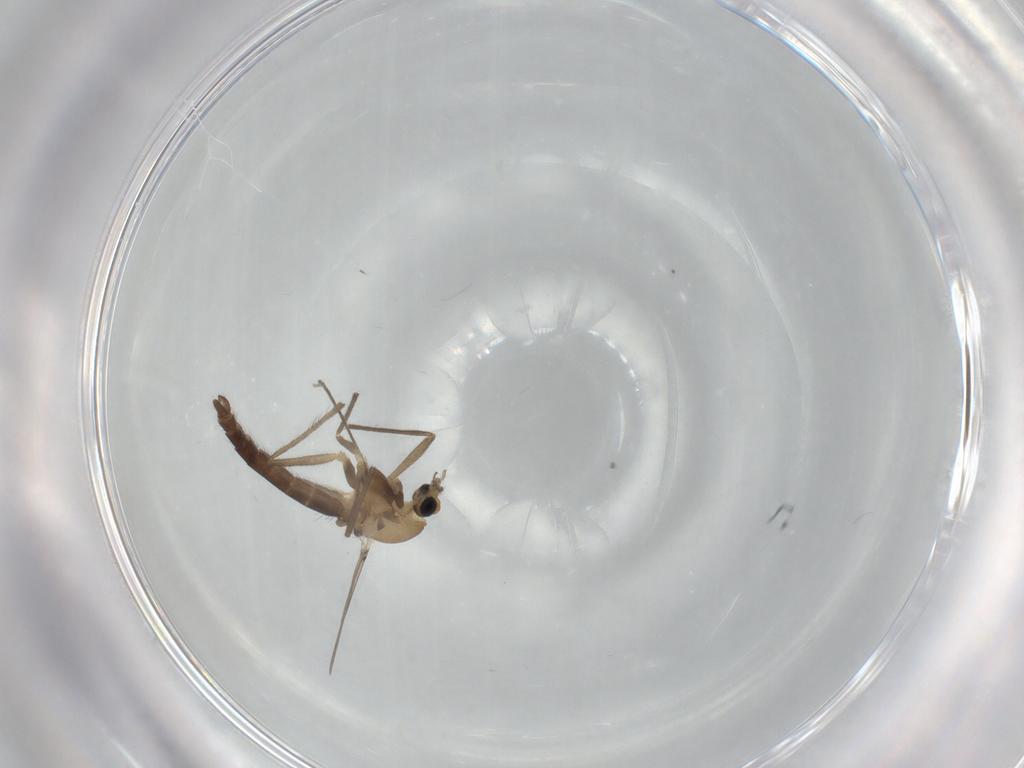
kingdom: Animalia
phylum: Arthropoda
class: Insecta
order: Diptera
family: Chironomidae
